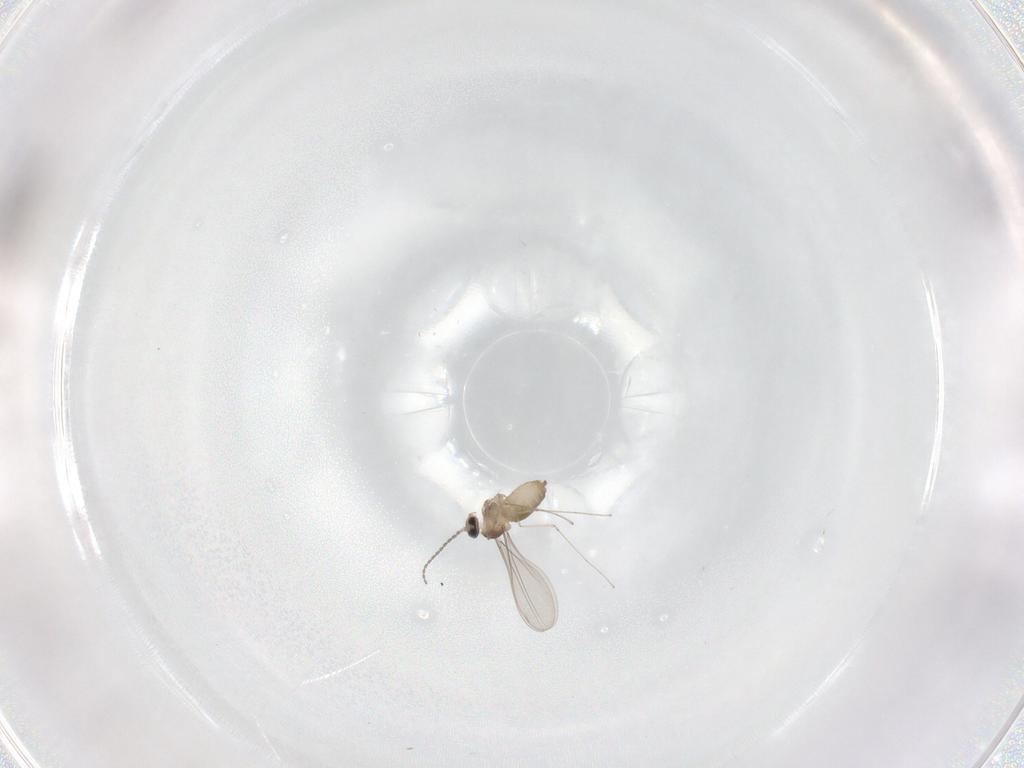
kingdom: Animalia
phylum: Arthropoda
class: Insecta
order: Diptera
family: Cecidomyiidae
